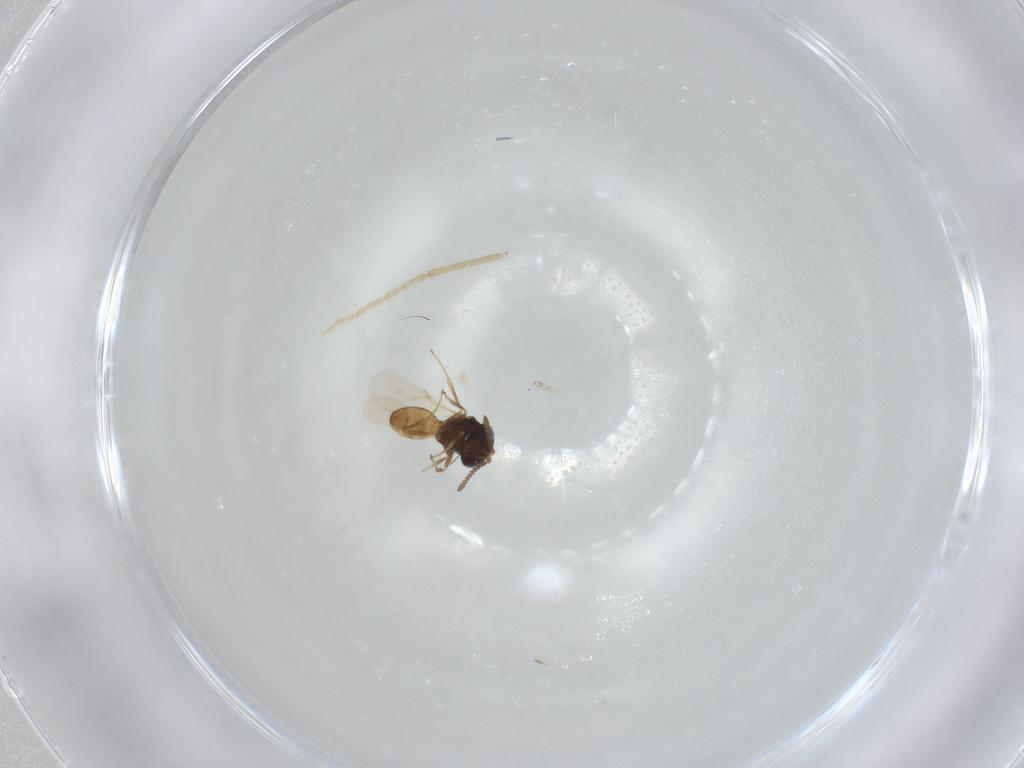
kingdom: Animalia
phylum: Arthropoda
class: Insecta
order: Hymenoptera
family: Scelionidae
